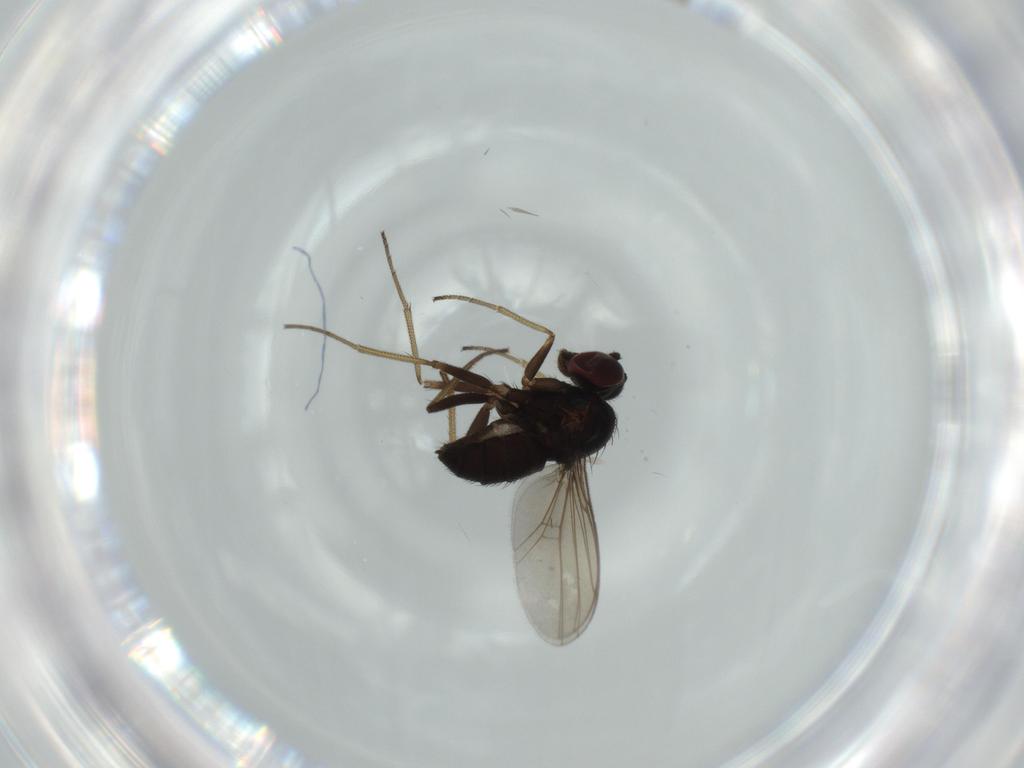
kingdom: Animalia
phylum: Arthropoda
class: Insecta
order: Diptera
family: Dolichopodidae
